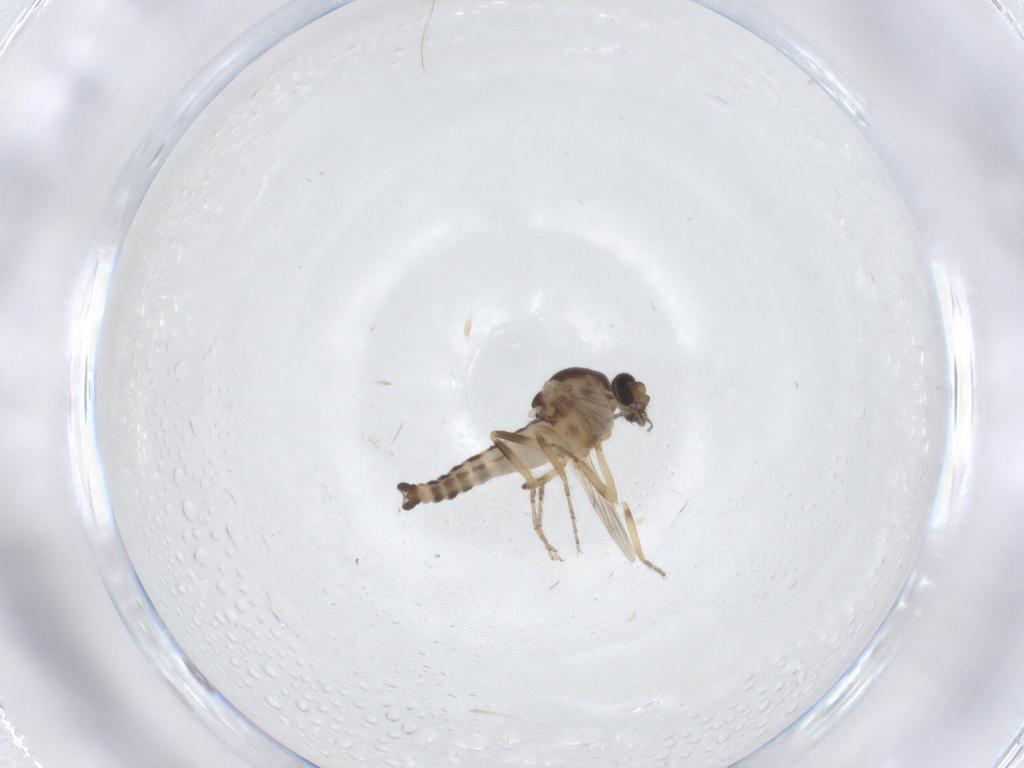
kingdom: Animalia
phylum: Arthropoda
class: Insecta
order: Diptera
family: Ceratopogonidae
